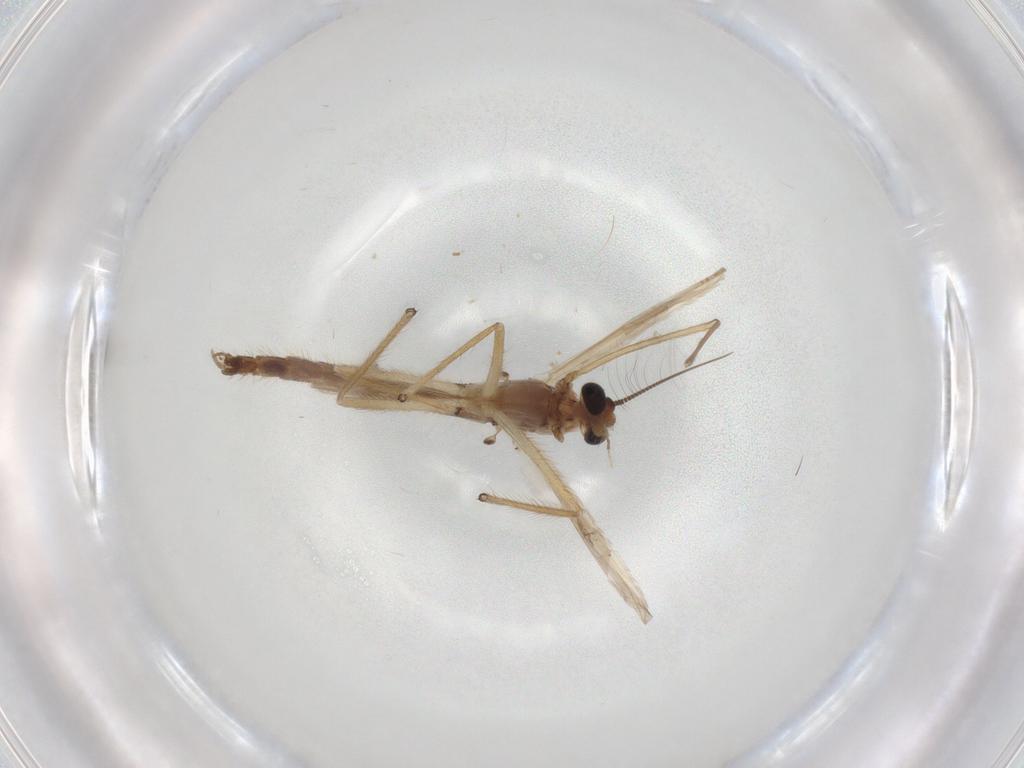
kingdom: Animalia
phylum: Arthropoda
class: Insecta
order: Diptera
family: Chironomidae
